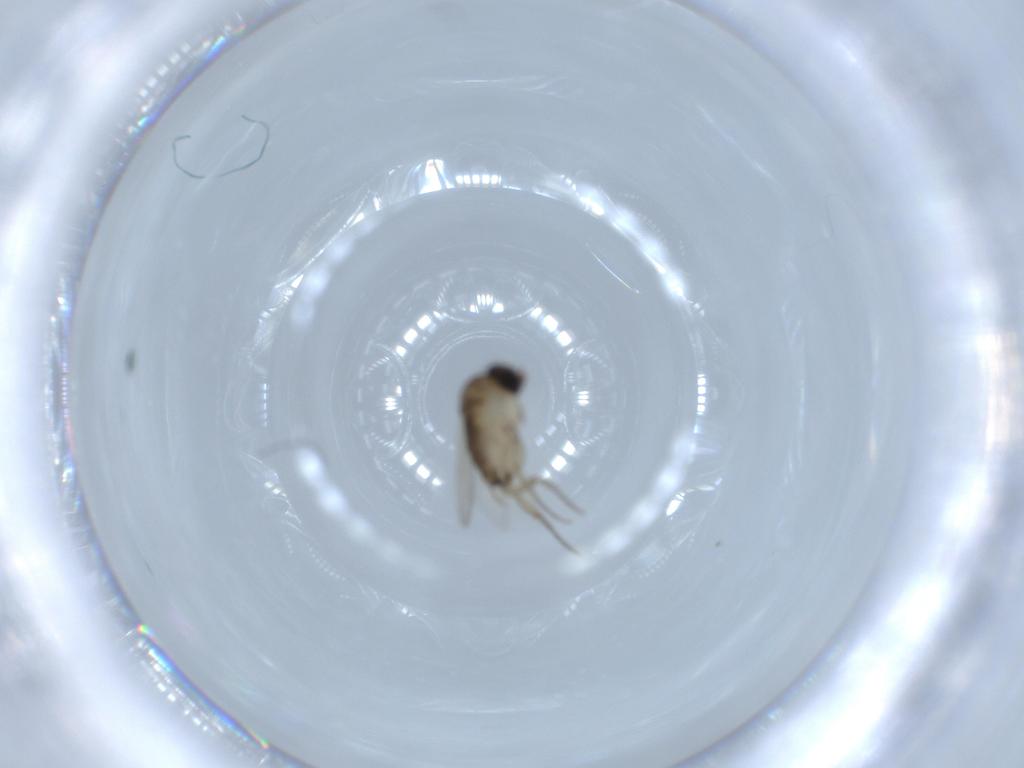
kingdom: Animalia
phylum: Arthropoda
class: Insecta
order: Diptera
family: Phoridae
